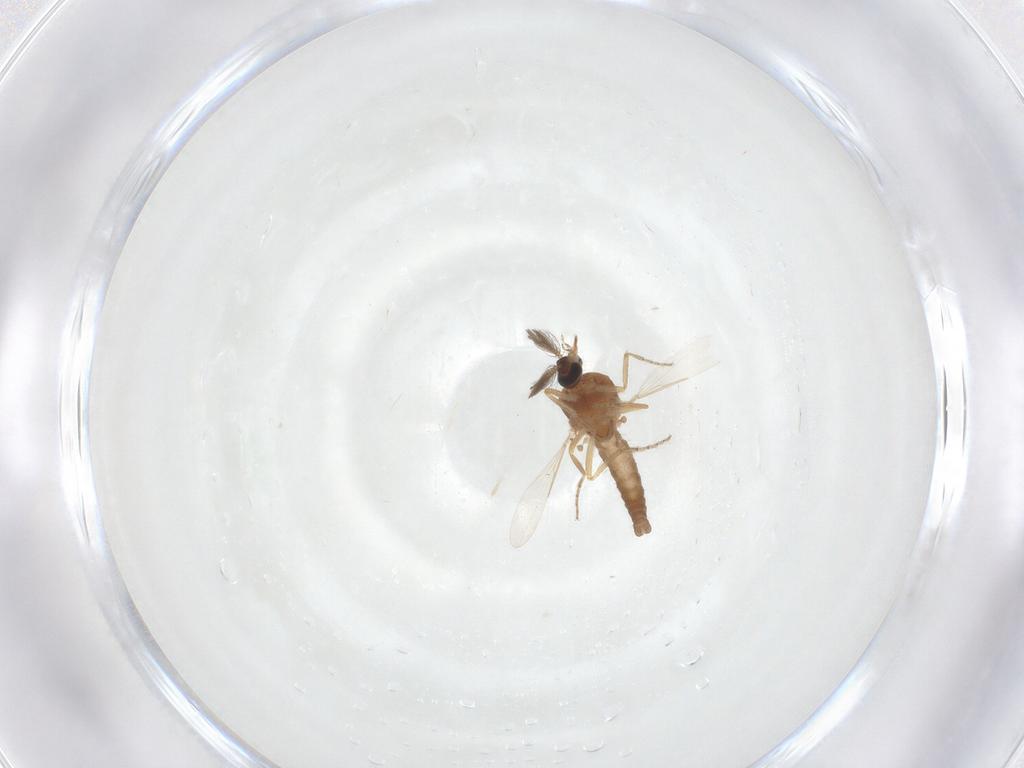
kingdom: Animalia
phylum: Arthropoda
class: Insecta
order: Diptera
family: Ceratopogonidae
